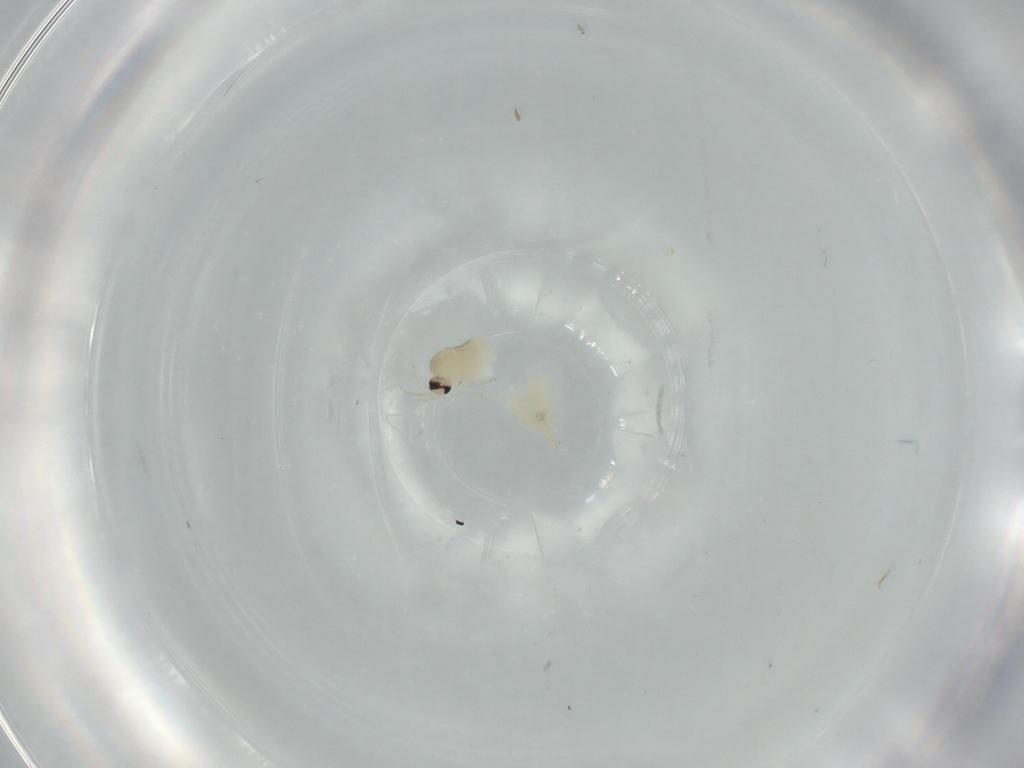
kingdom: Animalia
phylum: Arthropoda
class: Insecta
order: Diptera
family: Cecidomyiidae
